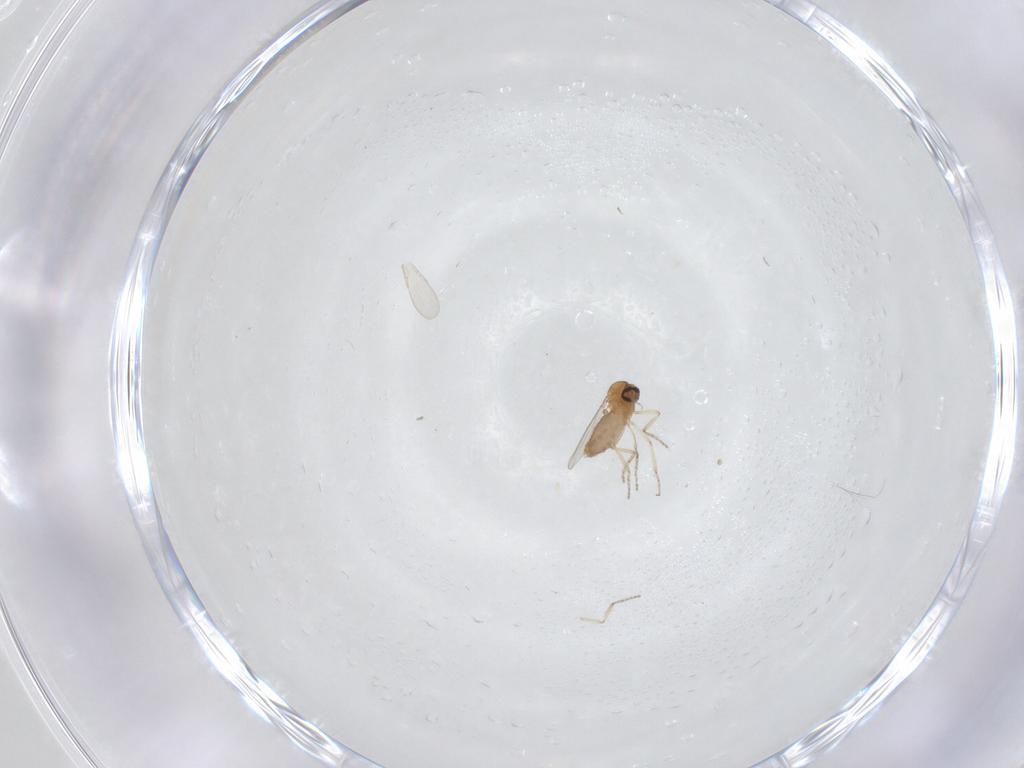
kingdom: Animalia
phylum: Arthropoda
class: Insecta
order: Diptera
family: Ceratopogonidae
